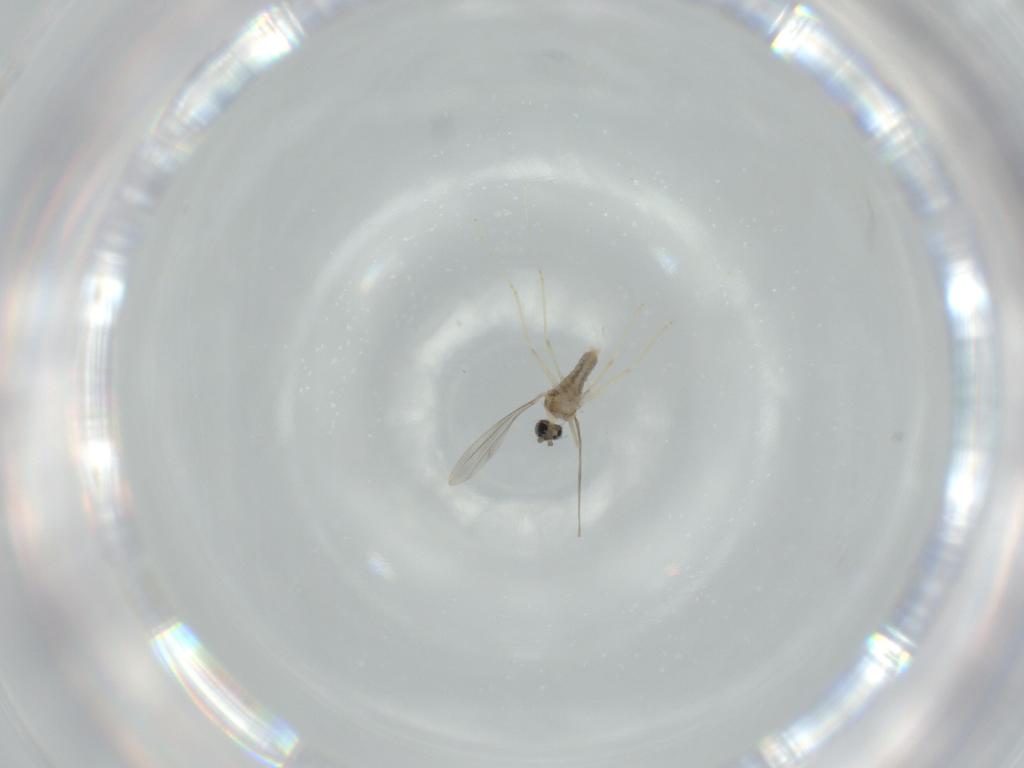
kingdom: Animalia
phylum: Arthropoda
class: Insecta
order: Diptera
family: Cecidomyiidae
